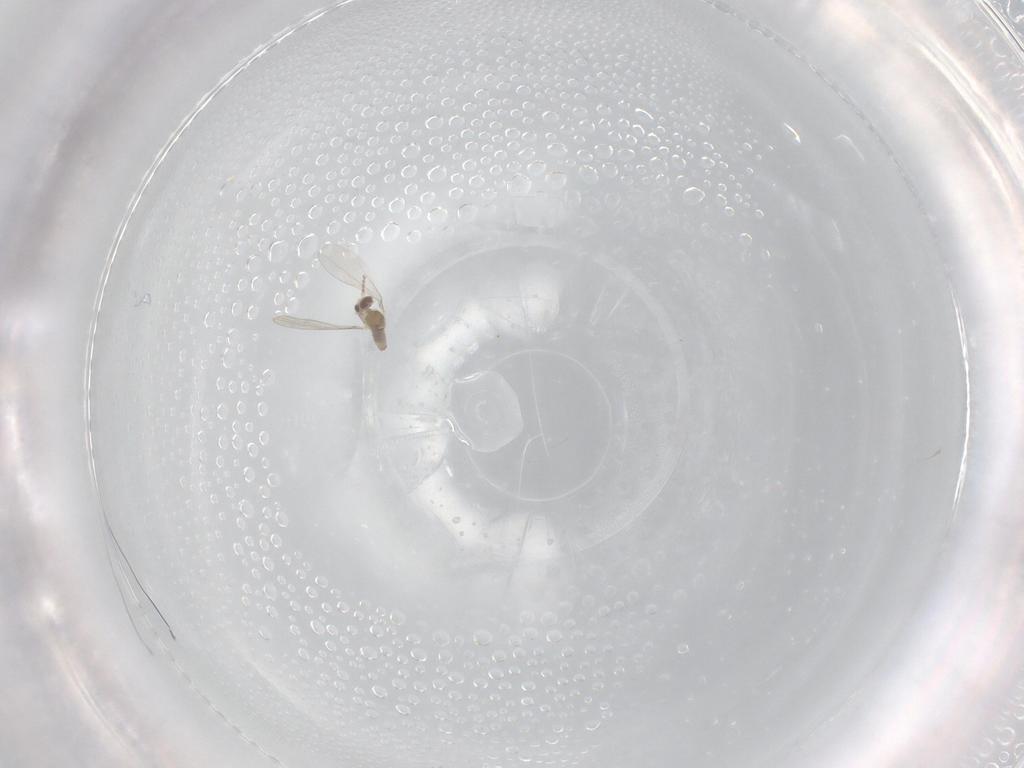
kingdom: Animalia
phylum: Arthropoda
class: Insecta
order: Diptera
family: Cecidomyiidae
